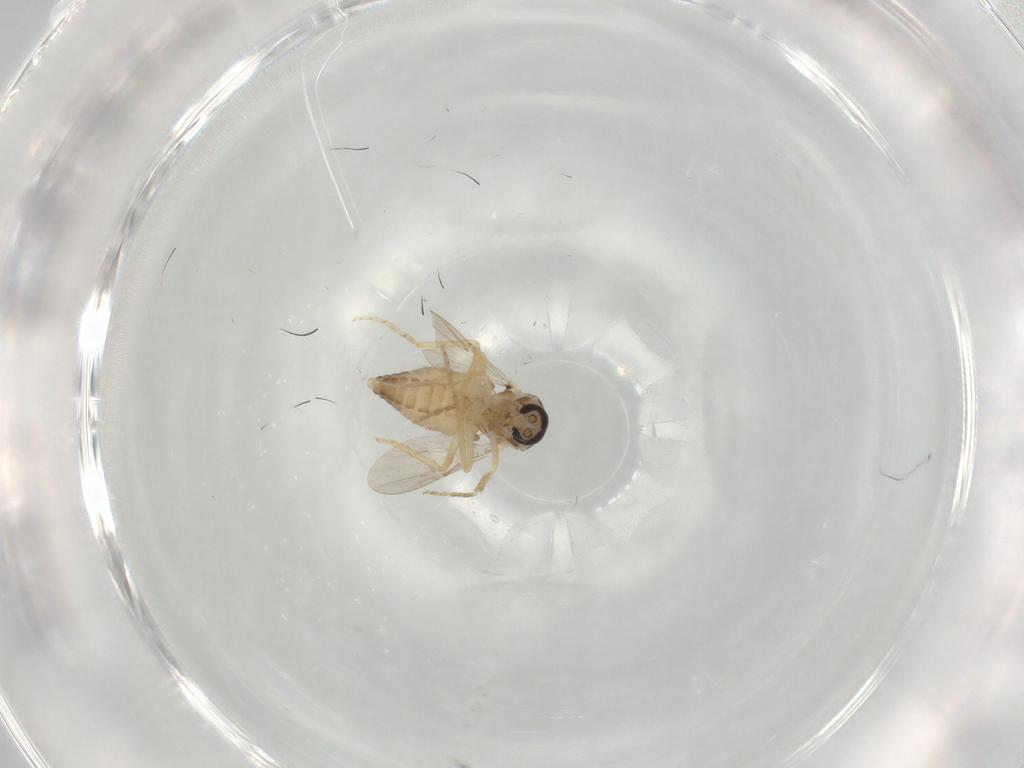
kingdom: Animalia
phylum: Arthropoda
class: Insecta
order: Diptera
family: Ceratopogonidae
